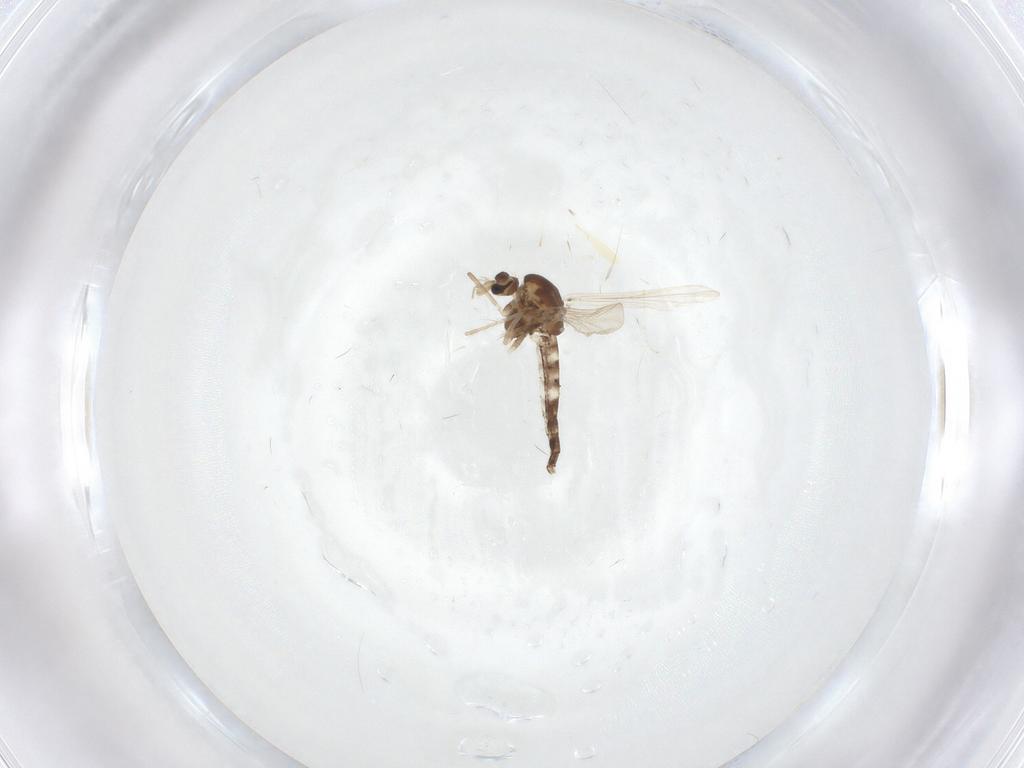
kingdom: Animalia
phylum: Arthropoda
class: Insecta
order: Diptera
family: Chironomidae
